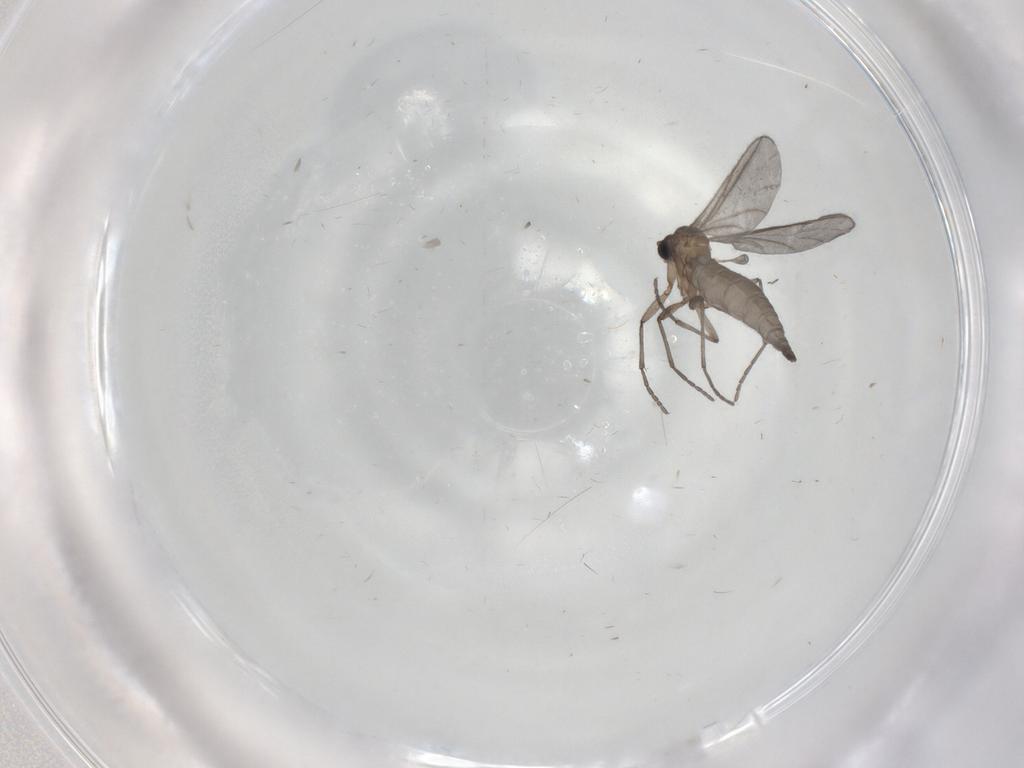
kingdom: Animalia
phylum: Arthropoda
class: Insecta
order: Diptera
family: Sciaridae
